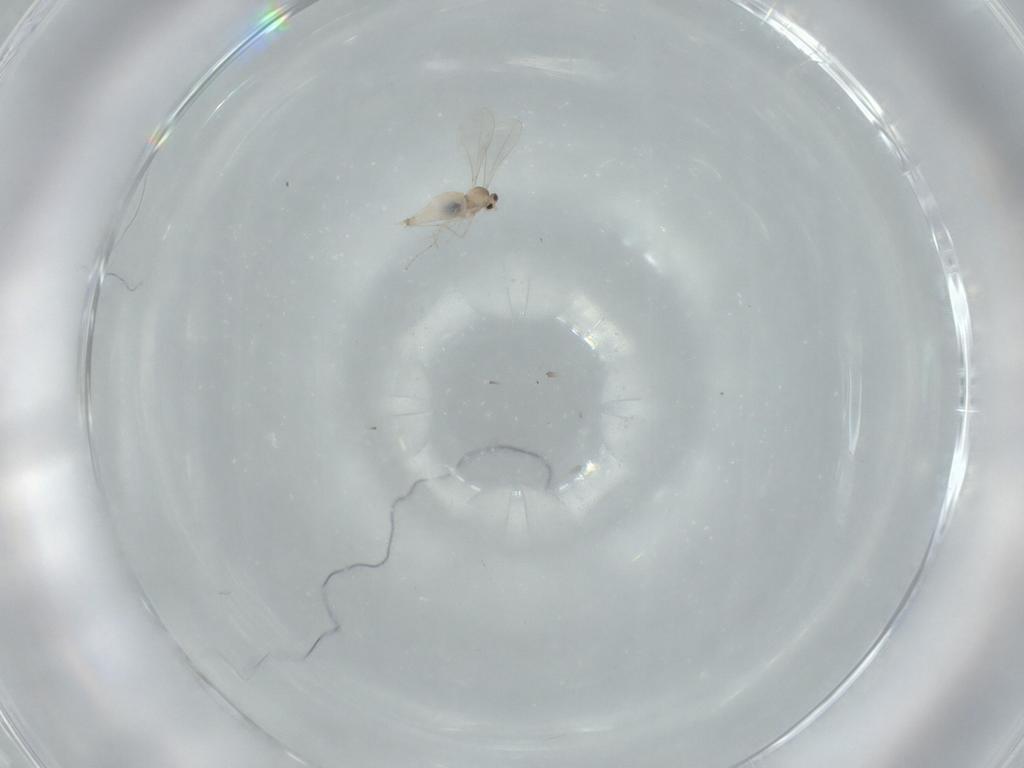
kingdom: Animalia
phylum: Arthropoda
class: Insecta
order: Diptera
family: Cecidomyiidae
